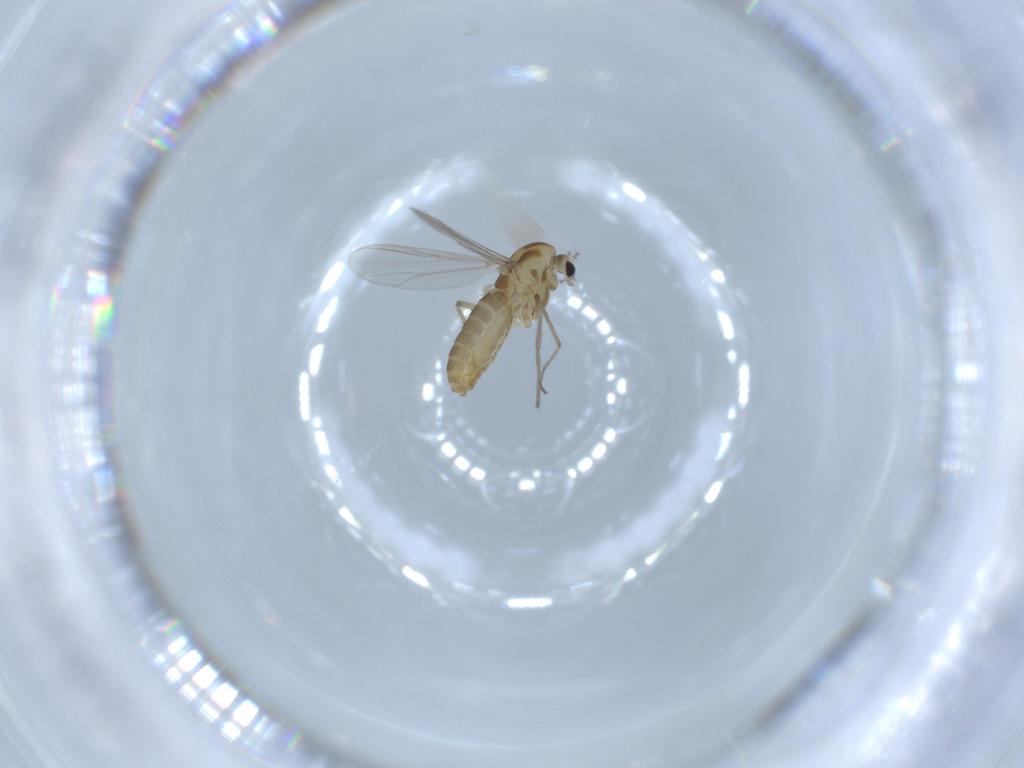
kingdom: Animalia
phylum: Arthropoda
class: Insecta
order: Diptera
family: Chironomidae
